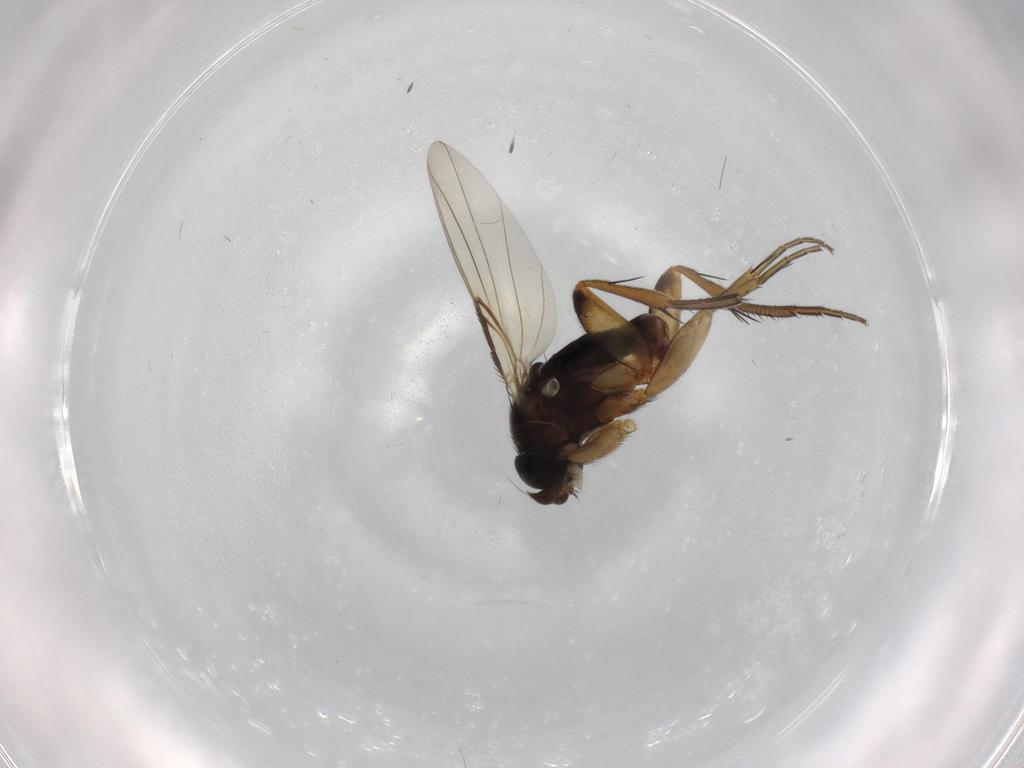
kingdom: Animalia
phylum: Arthropoda
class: Insecta
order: Diptera
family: Phoridae
